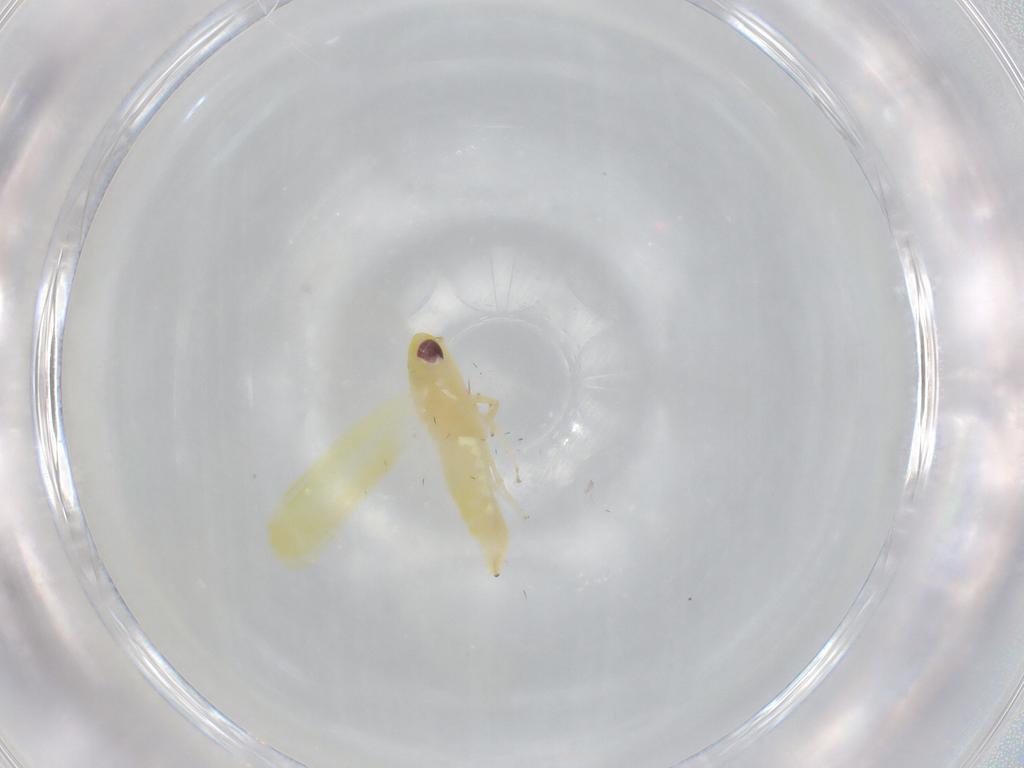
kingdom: Animalia
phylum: Arthropoda
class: Insecta
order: Hemiptera
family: Cicadellidae
